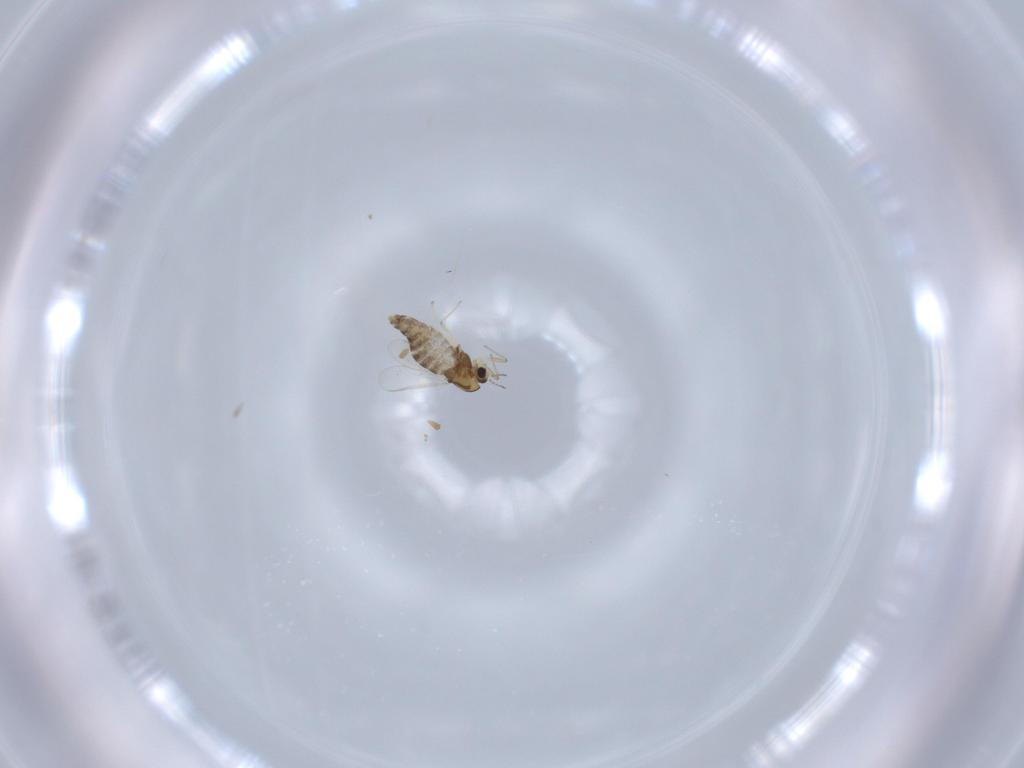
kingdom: Animalia
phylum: Arthropoda
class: Insecta
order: Diptera
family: Chironomidae
